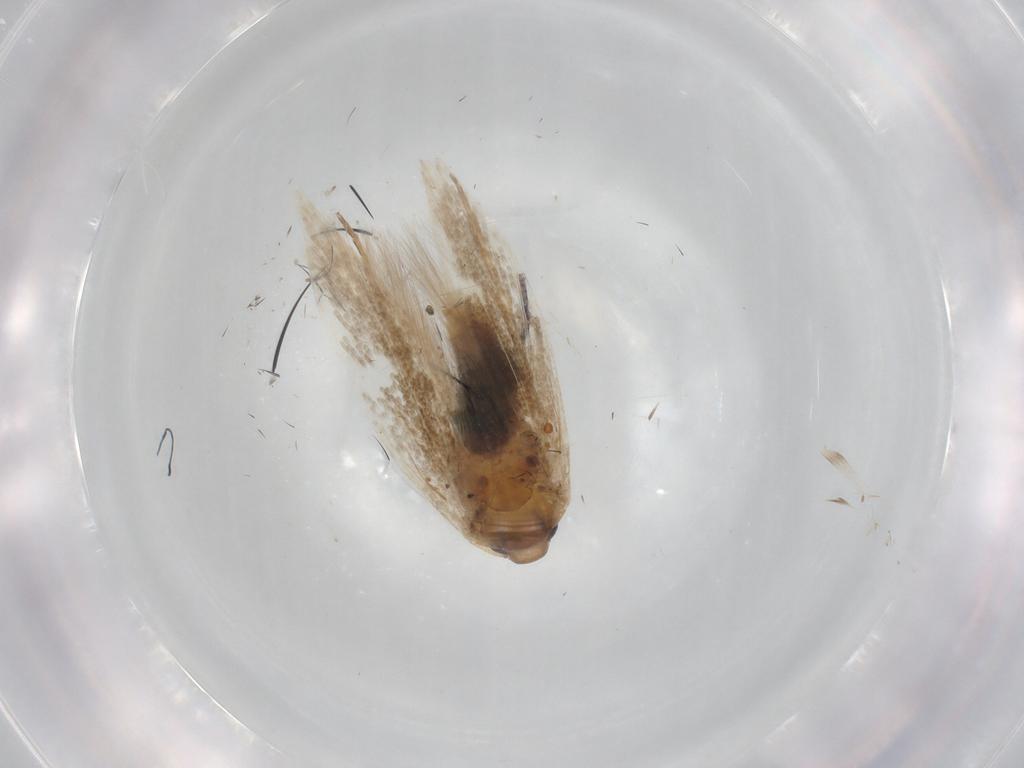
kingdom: Animalia
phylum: Arthropoda
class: Insecta
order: Lepidoptera
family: Gelechiidae
